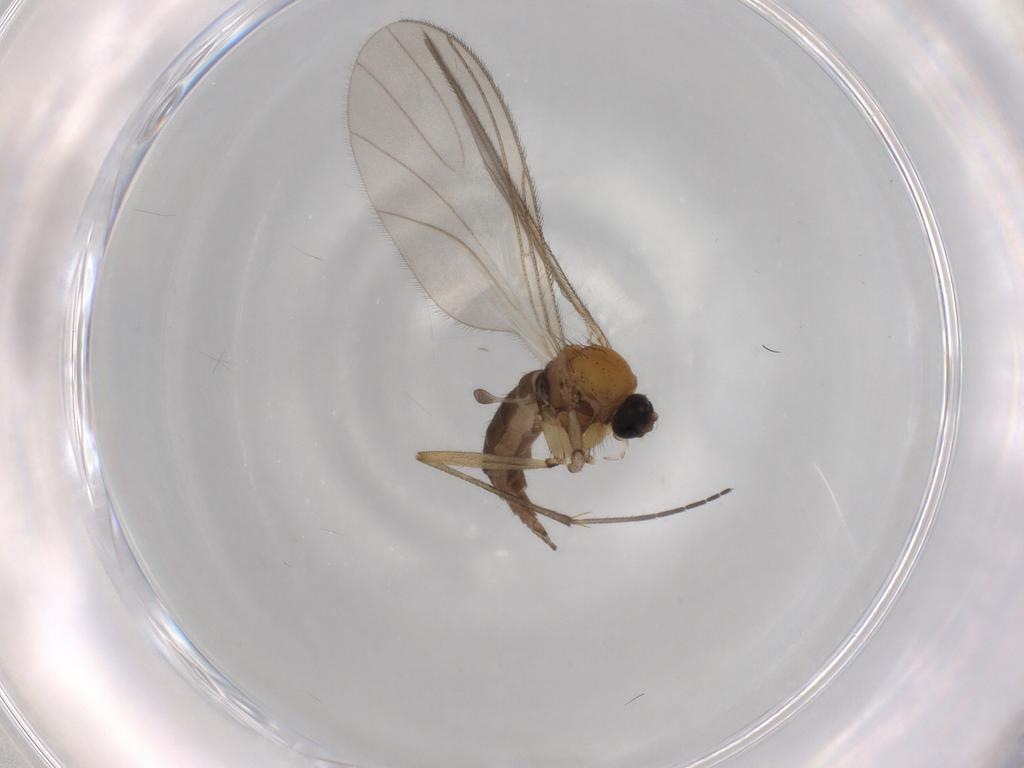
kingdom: Animalia
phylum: Arthropoda
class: Insecta
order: Diptera
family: Sciaridae
